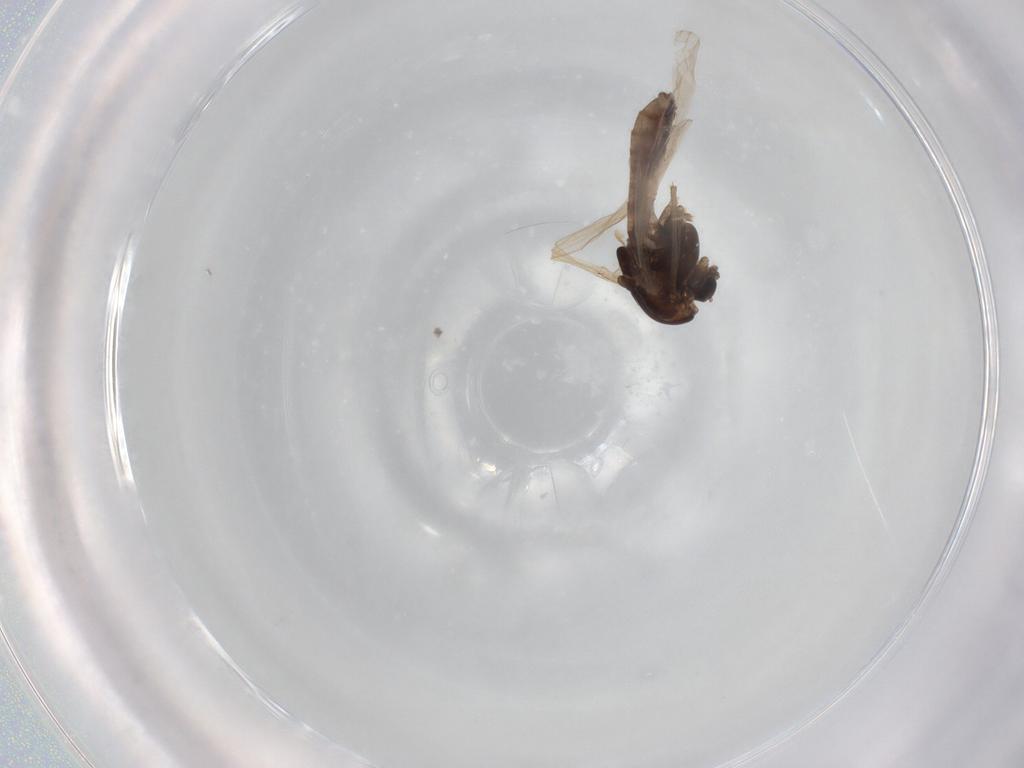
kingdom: Animalia
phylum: Arthropoda
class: Insecta
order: Diptera
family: Chironomidae
